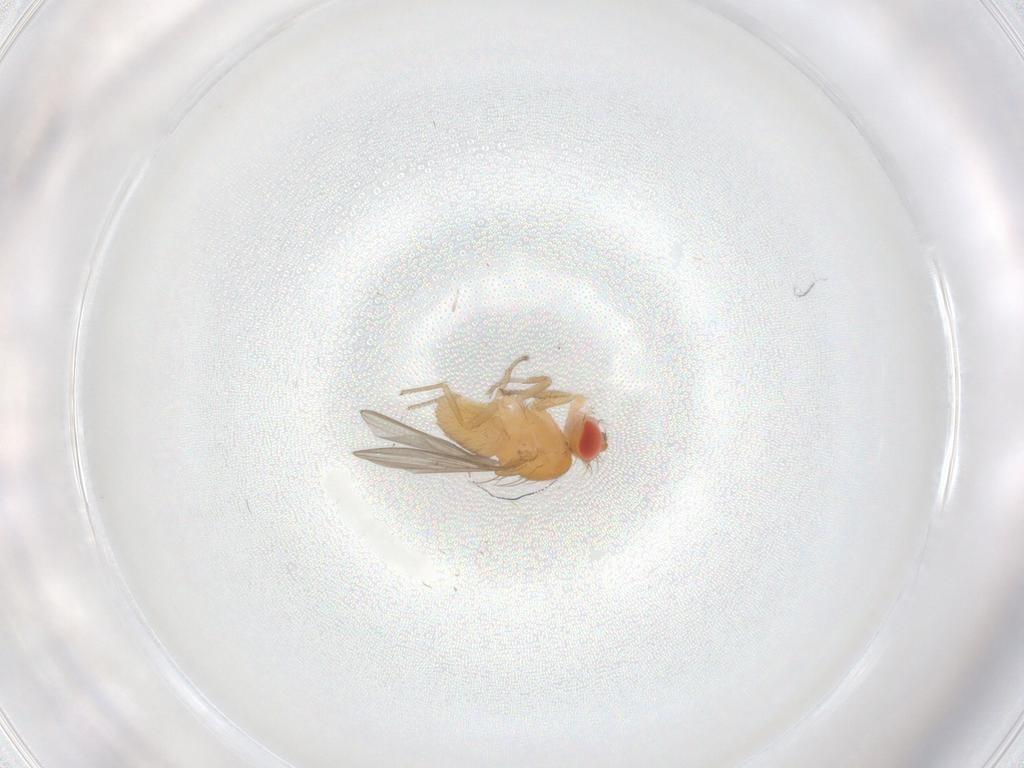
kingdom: Animalia
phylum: Arthropoda
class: Insecta
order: Diptera
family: Drosophilidae
